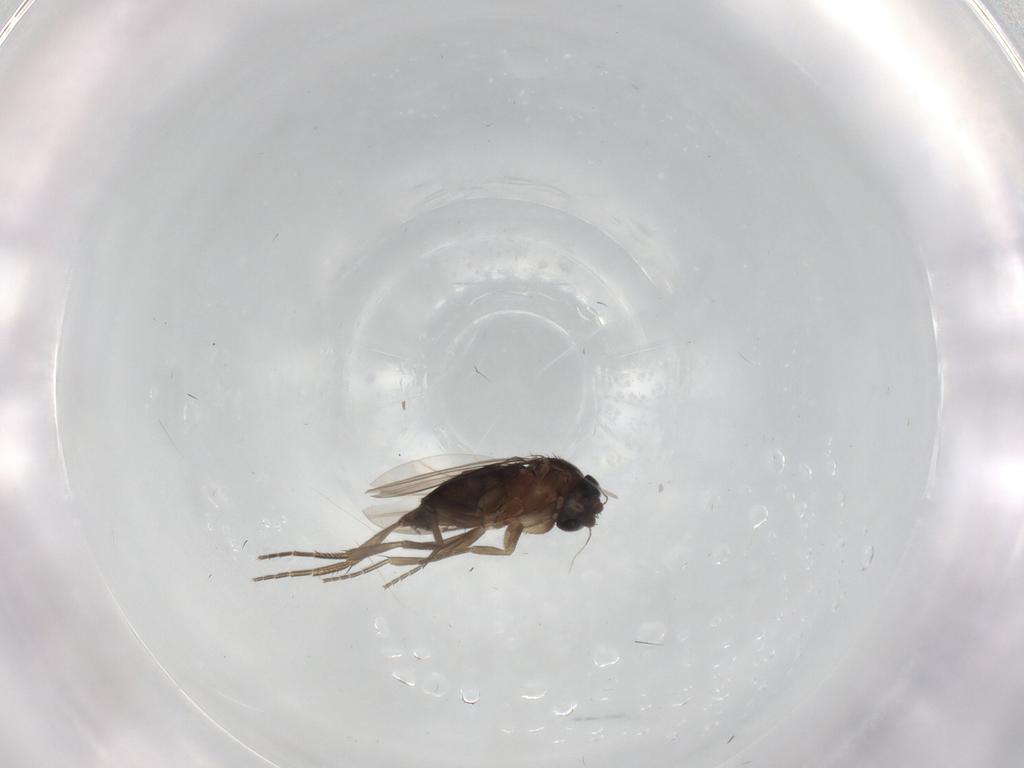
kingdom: Animalia
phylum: Arthropoda
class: Insecta
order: Diptera
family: Phoridae
